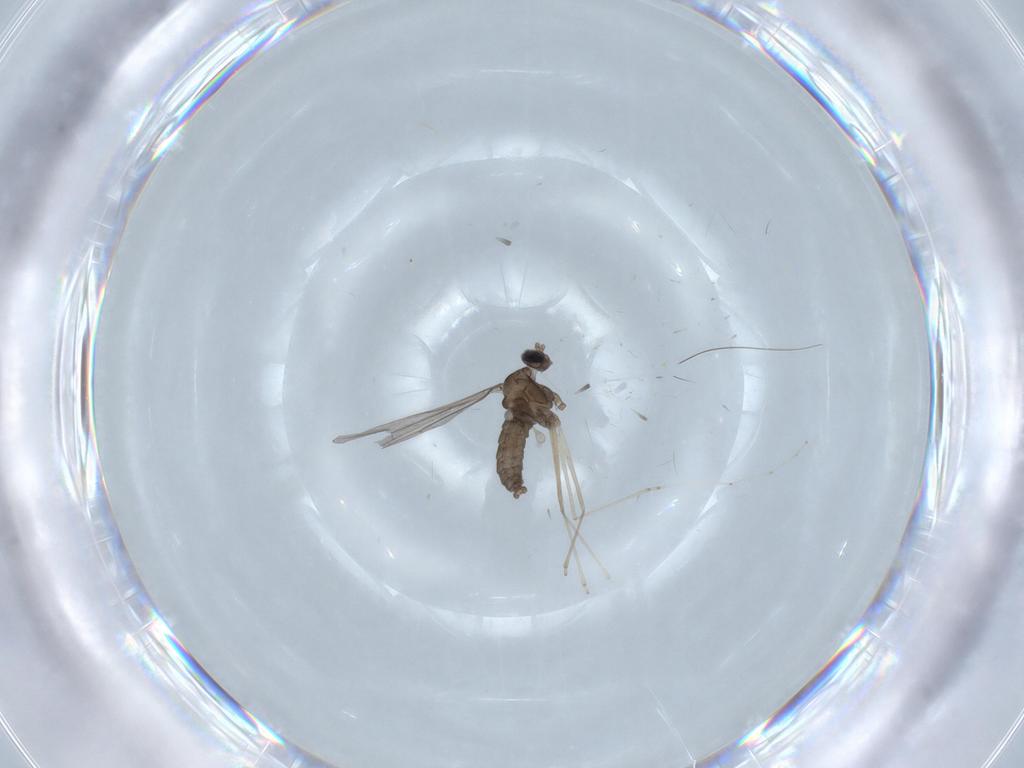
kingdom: Animalia
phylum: Arthropoda
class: Insecta
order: Diptera
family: Cecidomyiidae
